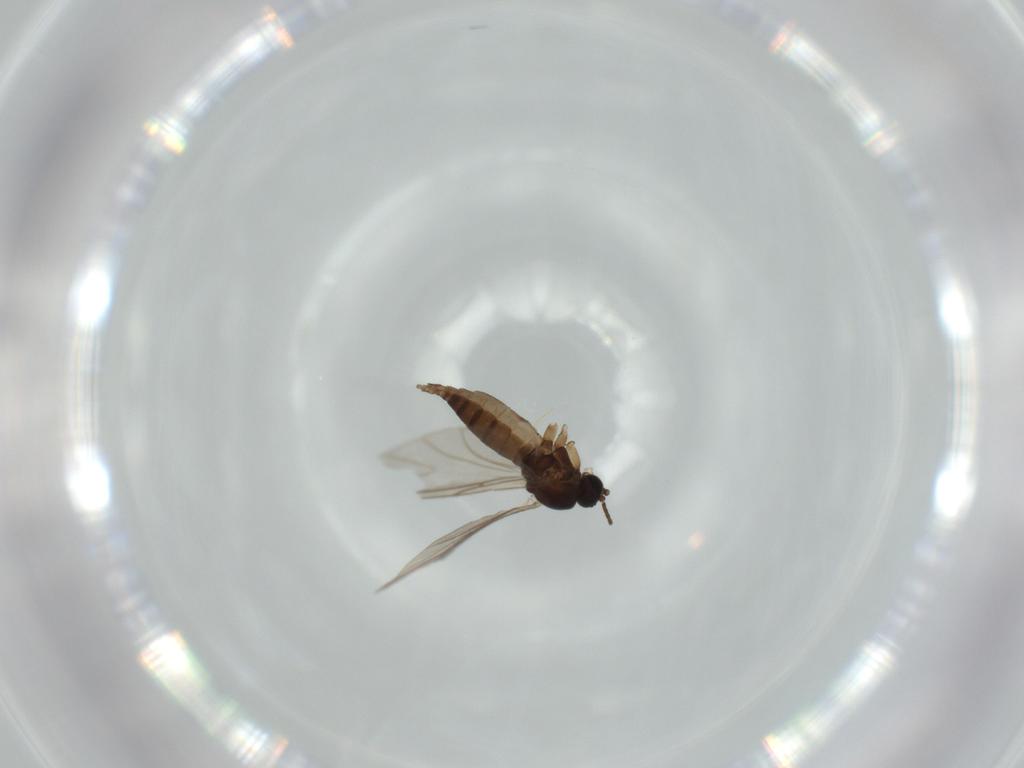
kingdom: Animalia
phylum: Arthropoda
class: Insecta
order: Diptera
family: Sciaridae
